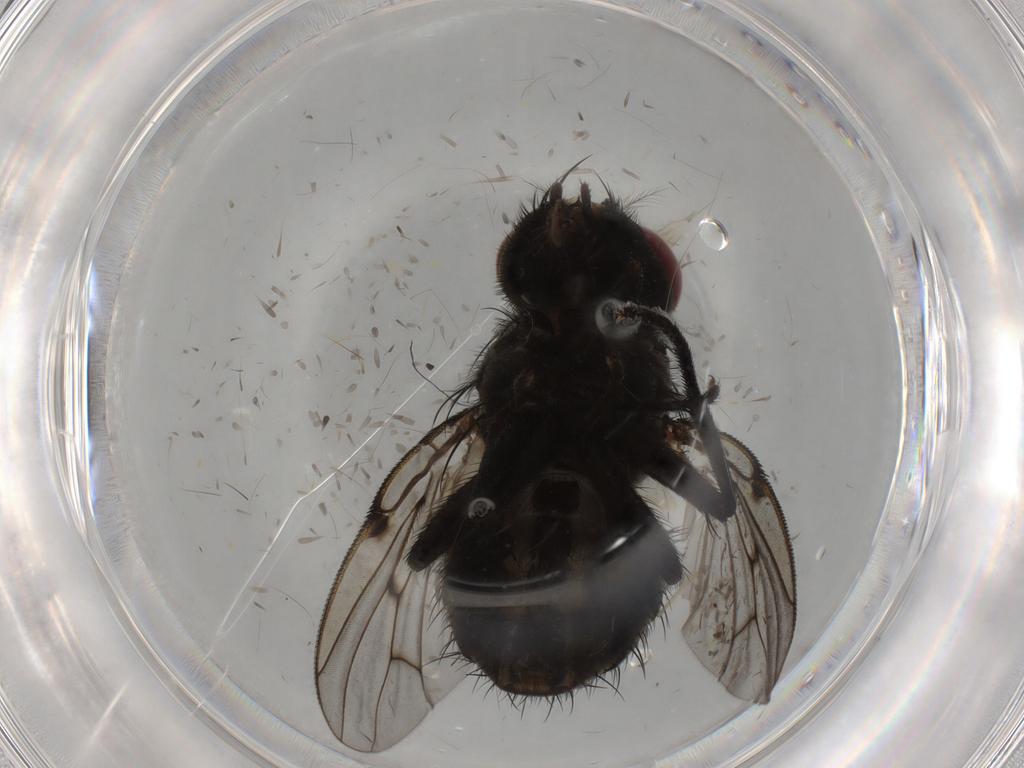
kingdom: Animalia
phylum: Arthropoda
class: Insecta
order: Diptera
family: Muscidae
